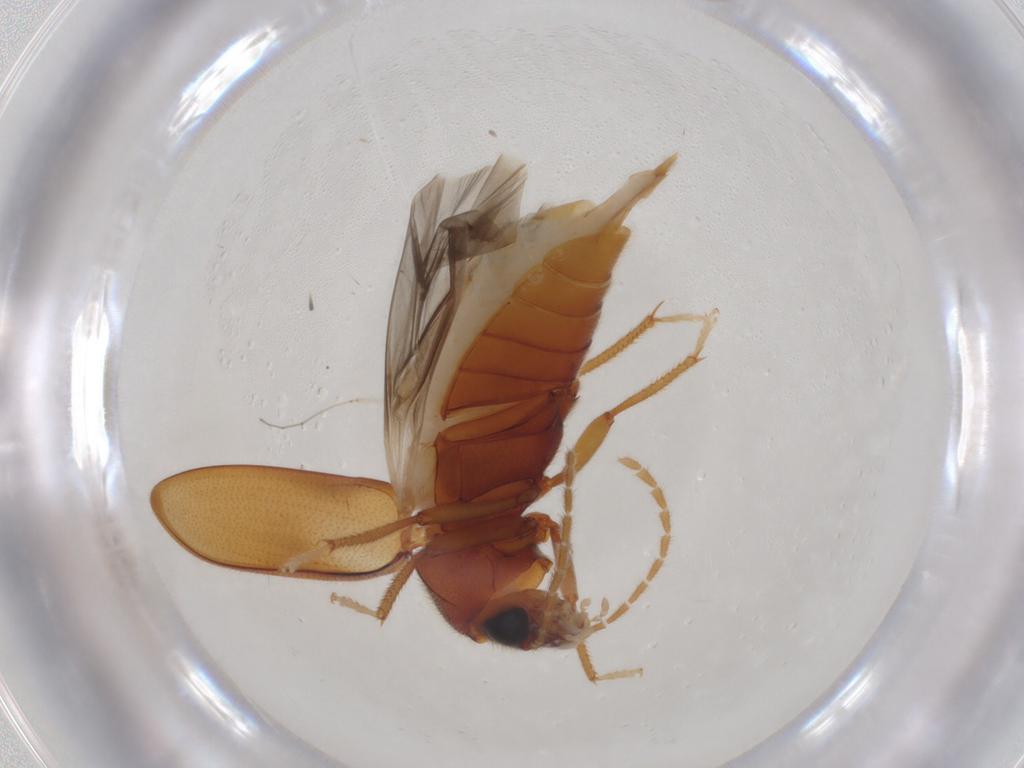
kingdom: Animalia
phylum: Arthropoda
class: Insecta
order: Coleoptera
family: Ptilodactylidae
